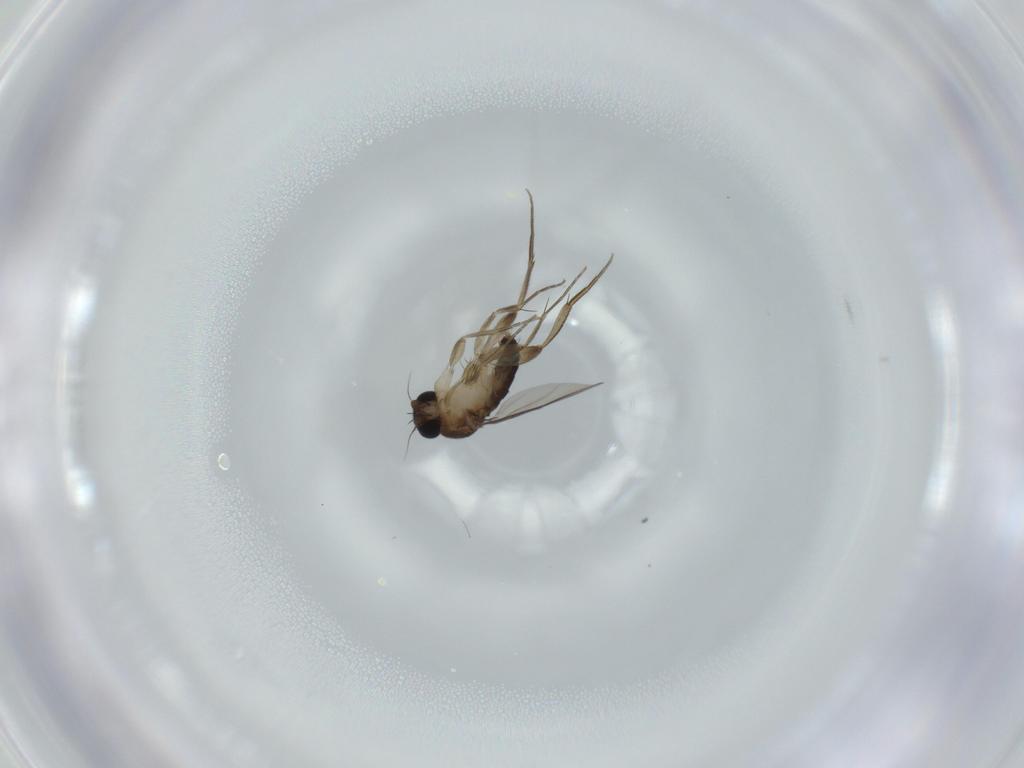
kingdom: Animalia
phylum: Arthropoda
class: Insecta
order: Diptera
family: Phoridae
